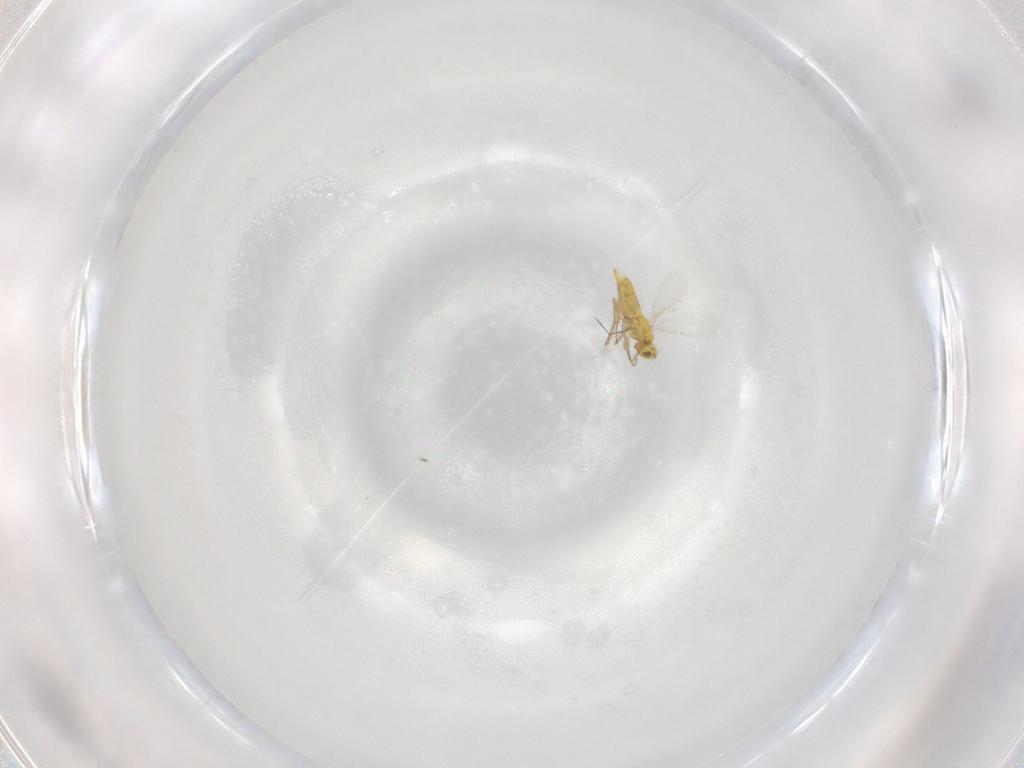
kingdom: Animalia
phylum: Arthropoda
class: Insecta
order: Hymenoptera
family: Aphelinidae
